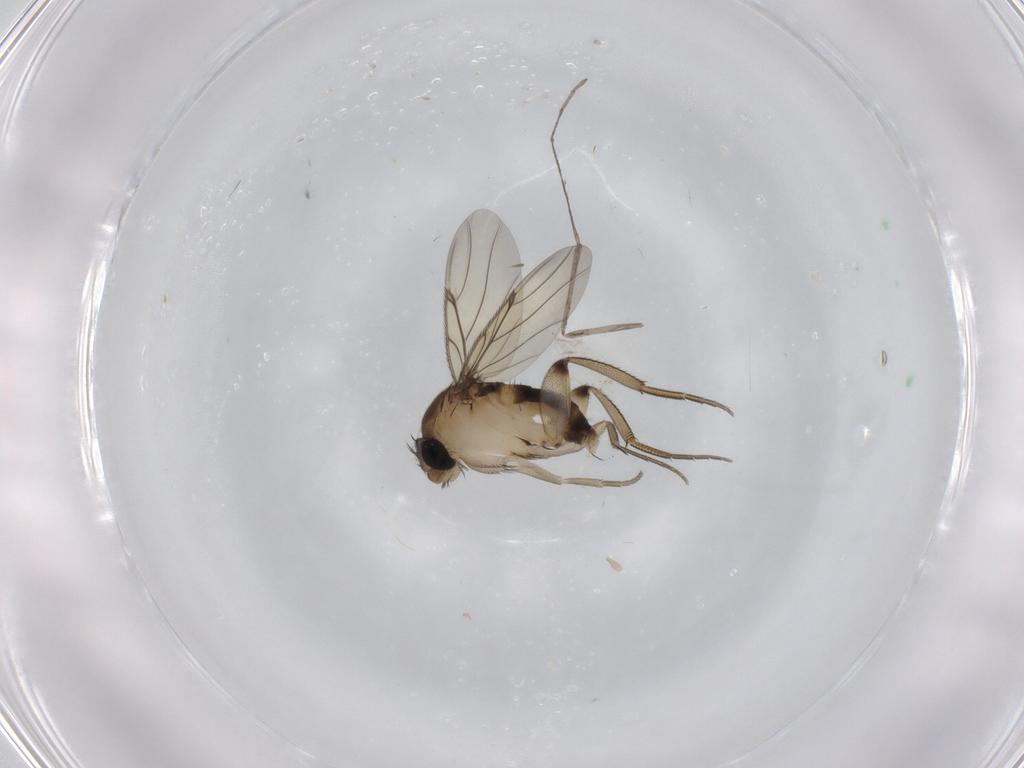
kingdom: Animalia
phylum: Arthropoda
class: Insecta
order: Diptera
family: Phoridae
